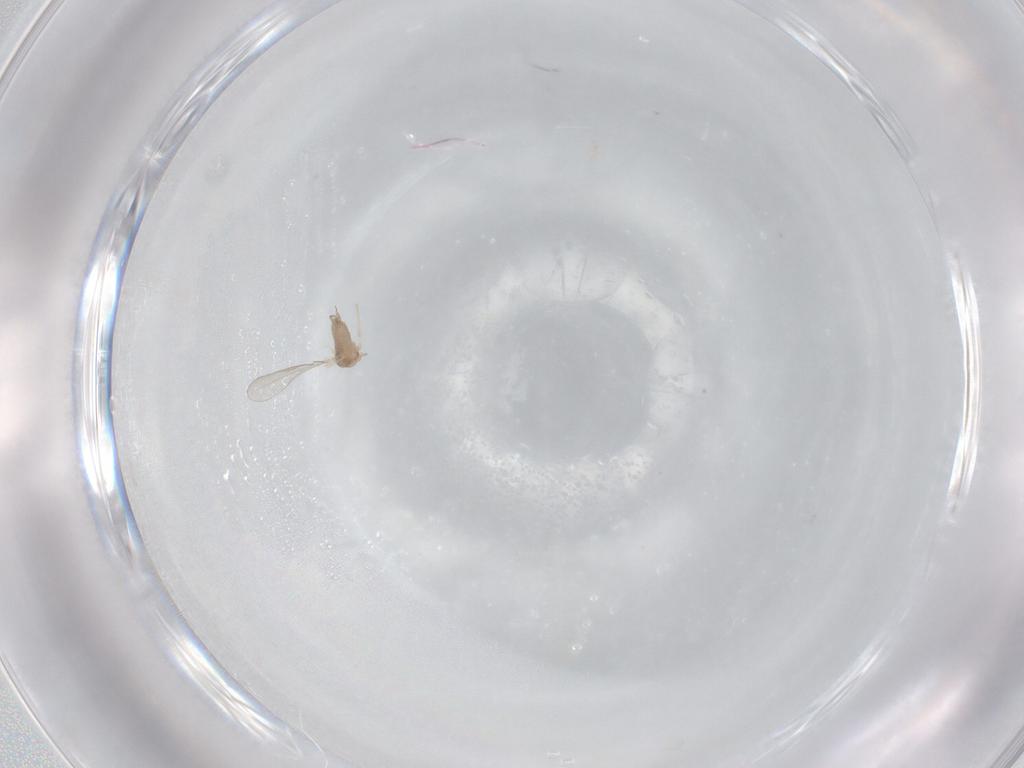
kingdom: Animalia
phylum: Arthropoda
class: Insecta
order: Diptera
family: Cecidomyiidae
